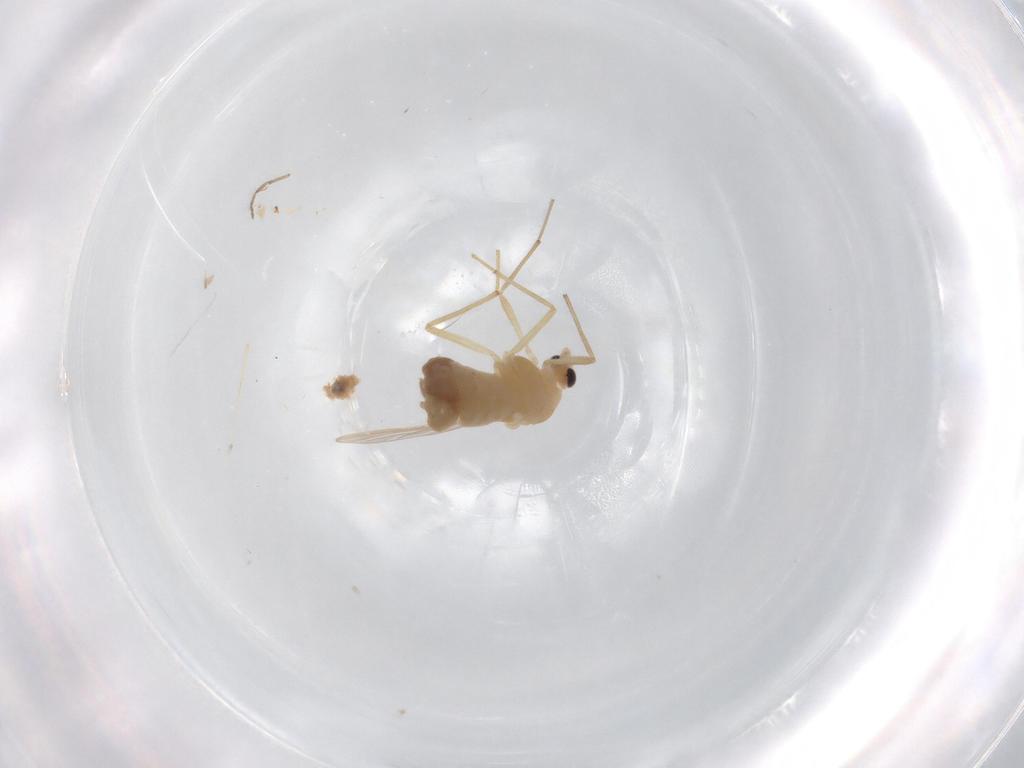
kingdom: Animalia
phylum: Arthropoda
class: Insecta
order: Diptera
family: Chironomidae
